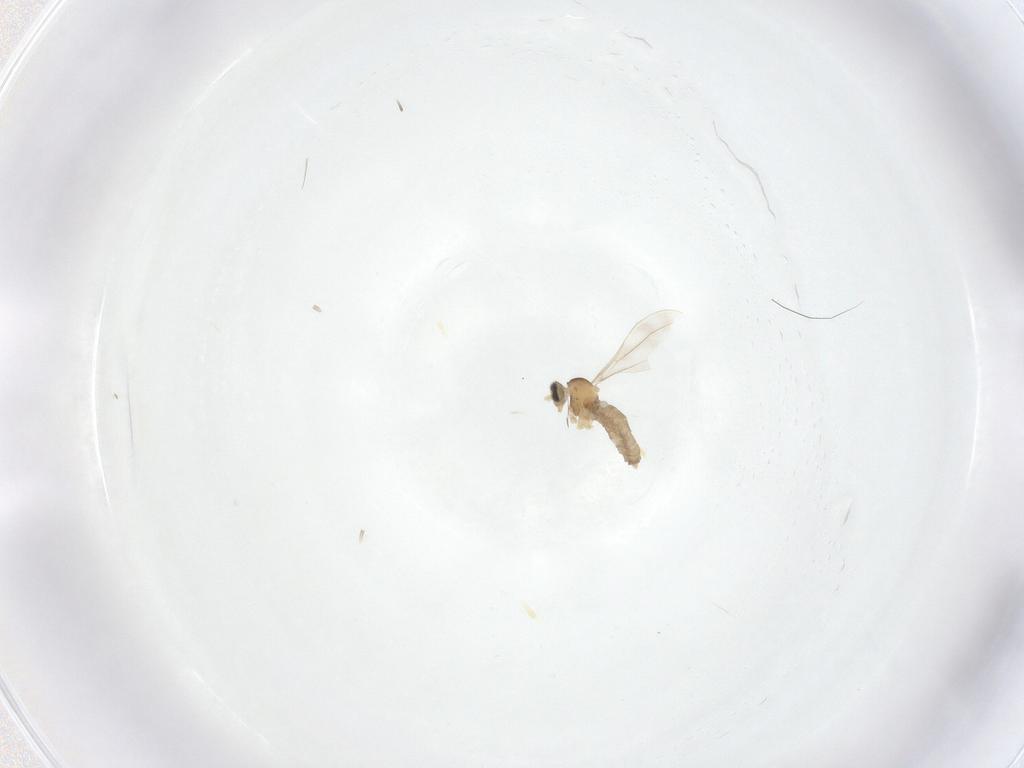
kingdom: Animalia
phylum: Arthropoda
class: Insecta
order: Diptera
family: Cecidomyiidae
